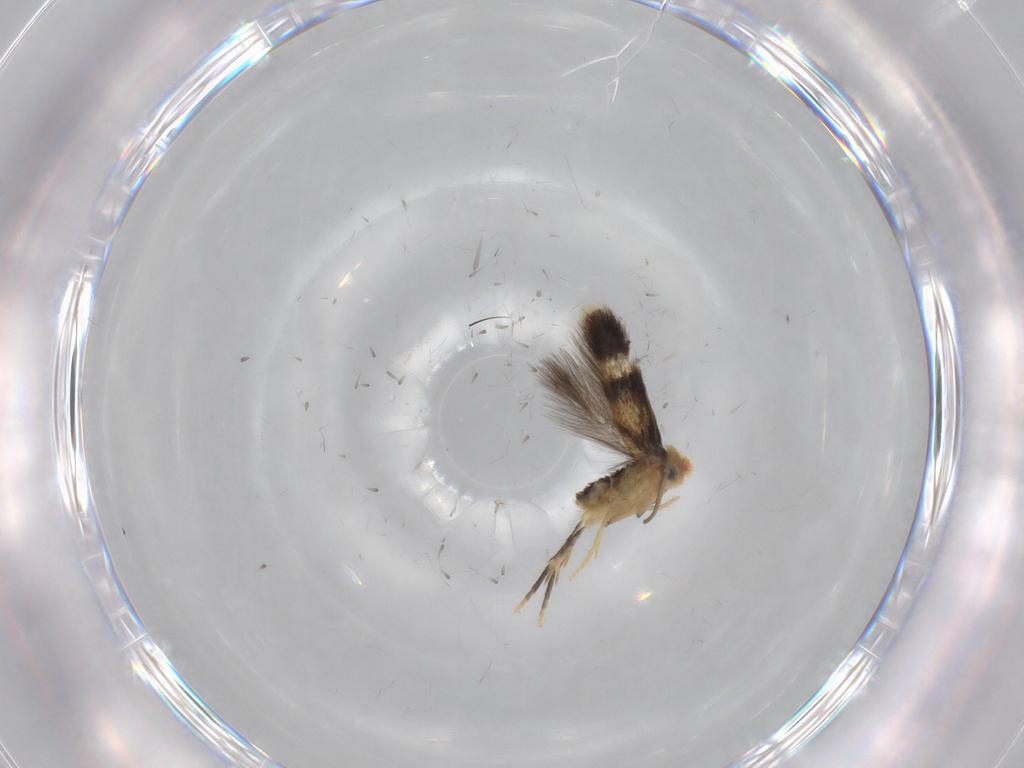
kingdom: Animalia
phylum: Arthropoda
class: Insecta
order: Lepidoptera
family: Nepticulidae
